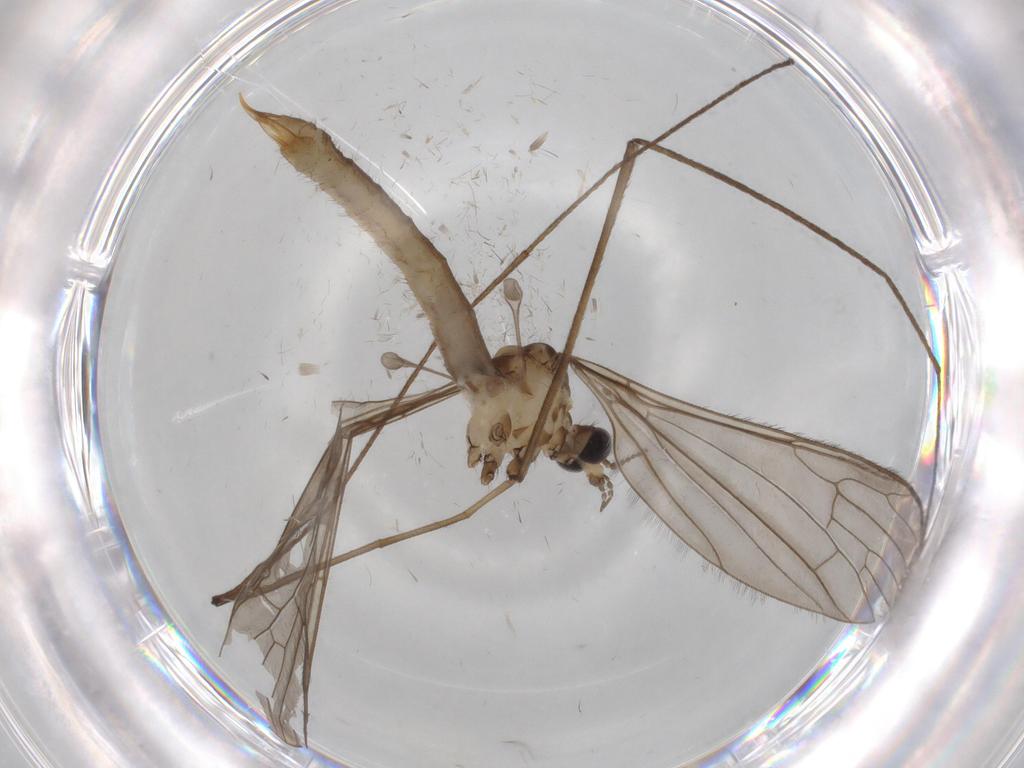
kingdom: Animalia
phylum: Arthropoda
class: Insecta
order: Diptera
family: Limoniidae
